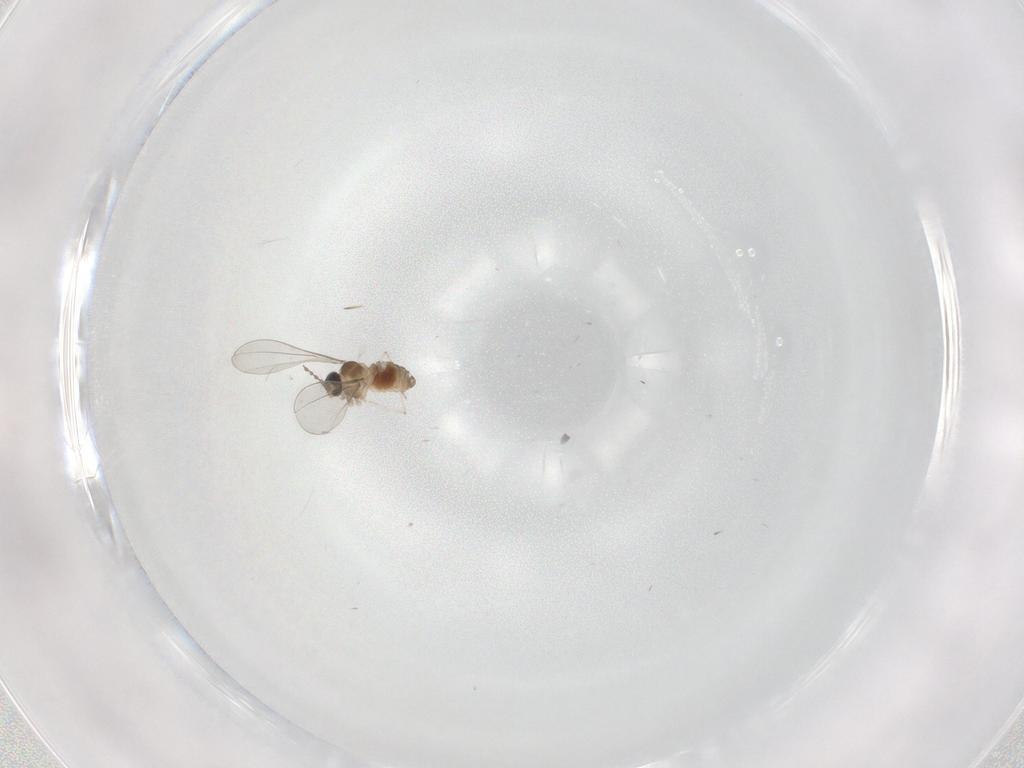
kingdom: Animalia
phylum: Arthropoda
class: Insecta
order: Diptera
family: Cecidomyiidae
